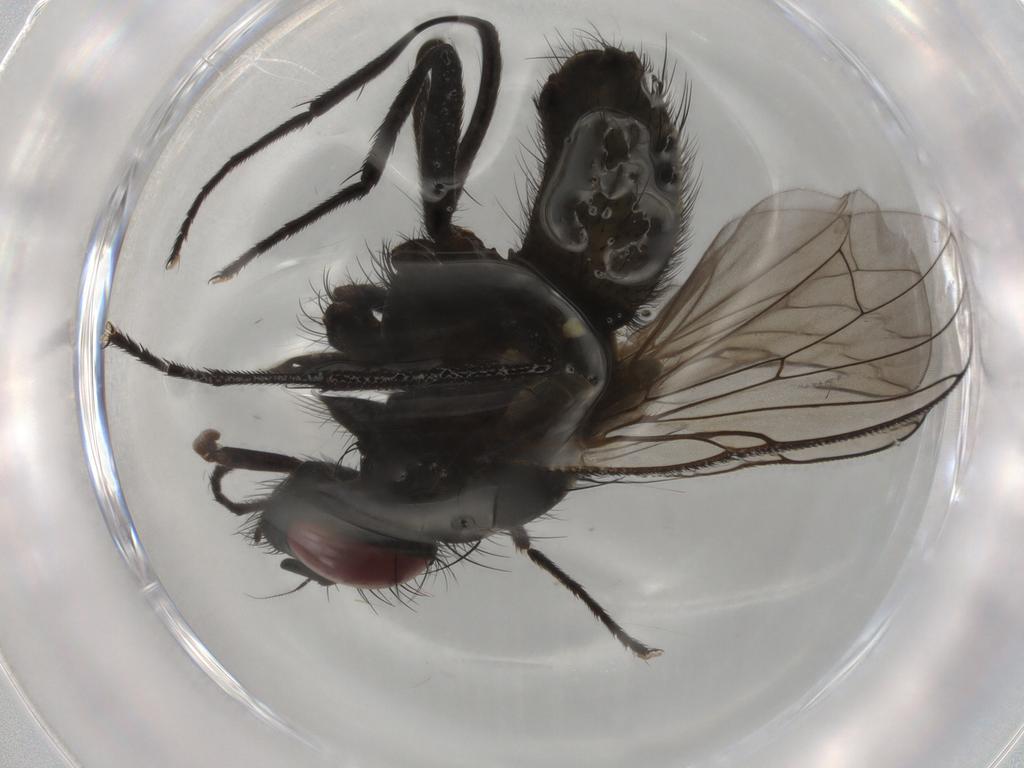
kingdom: Animalia
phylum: Arthropoda
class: Insecta
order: Diptera
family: Muscidae
